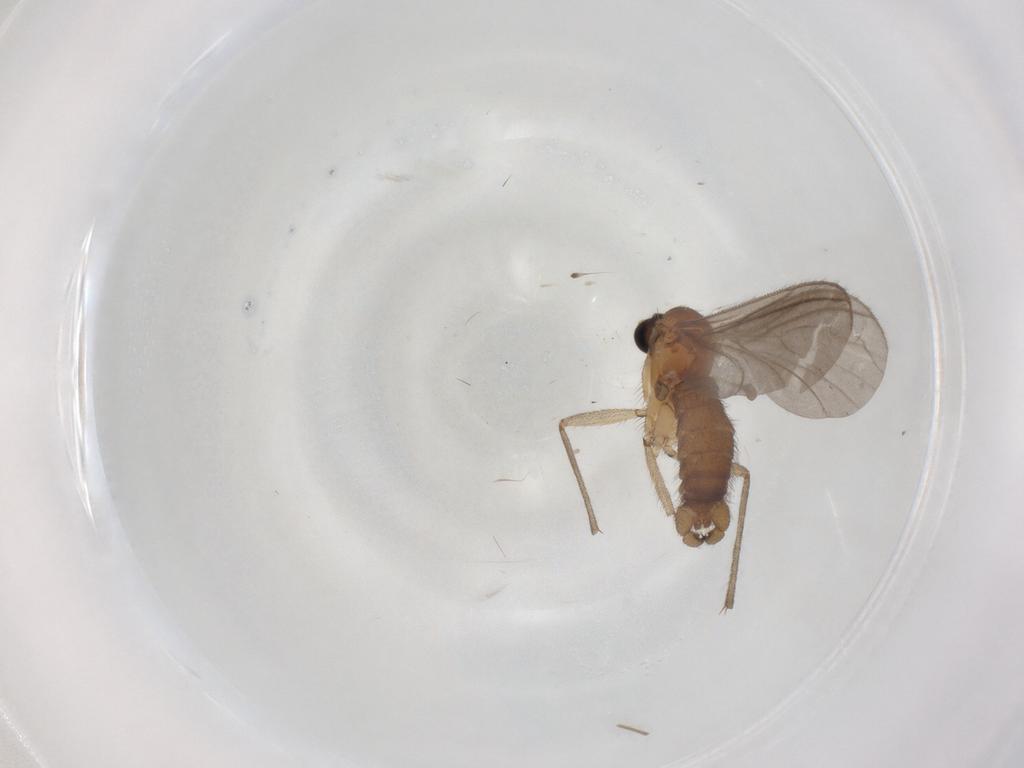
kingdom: Animalia
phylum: Arthropoda
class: Insecta
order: Diptera
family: Sciaridae
